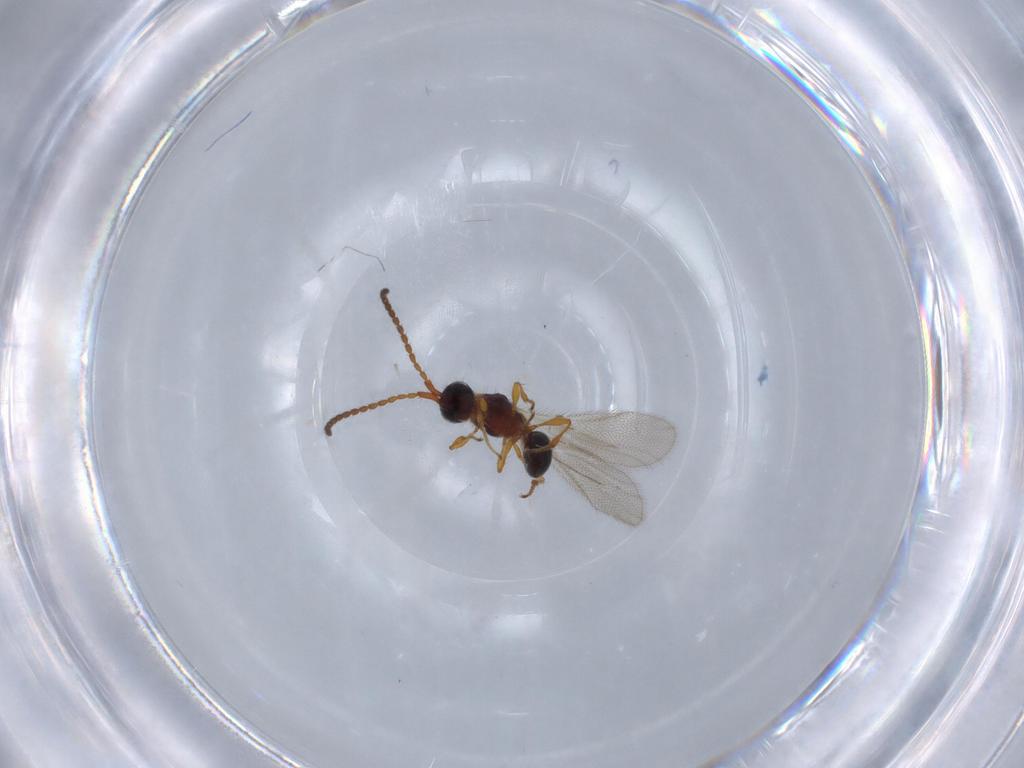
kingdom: Animalia
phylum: Arthropoda
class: Insecta
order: Hymenoptera
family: Diapriidae
